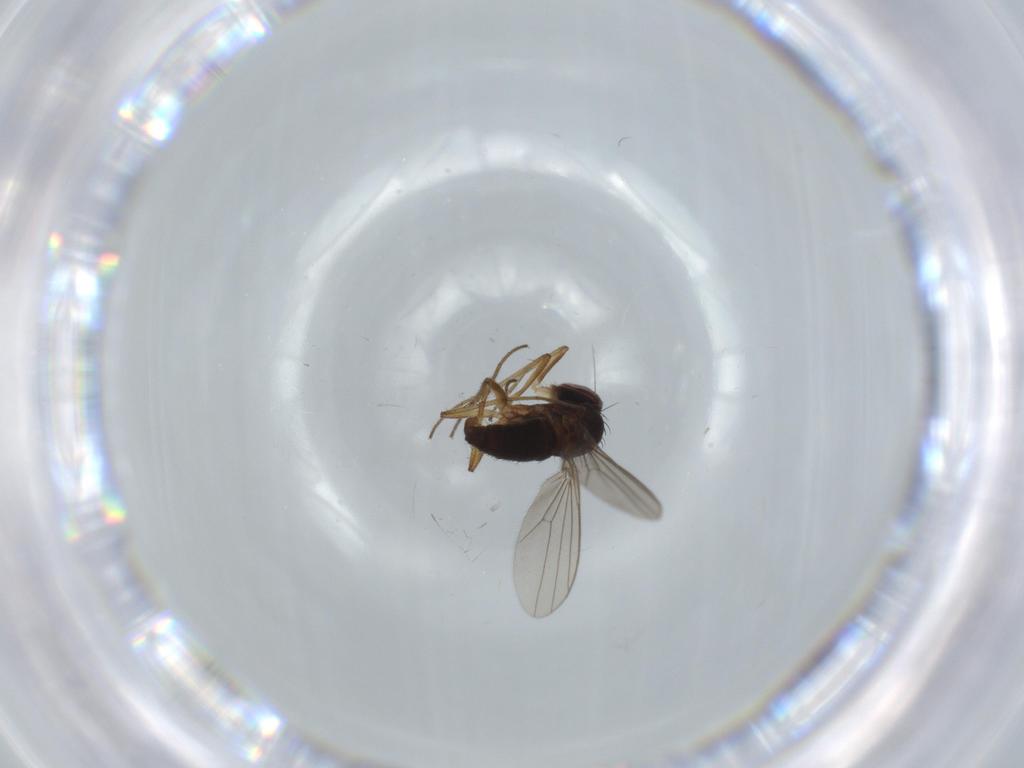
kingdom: Animalia
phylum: Arthropoda
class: Insecta
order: Diptera
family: Dolichopodidae
